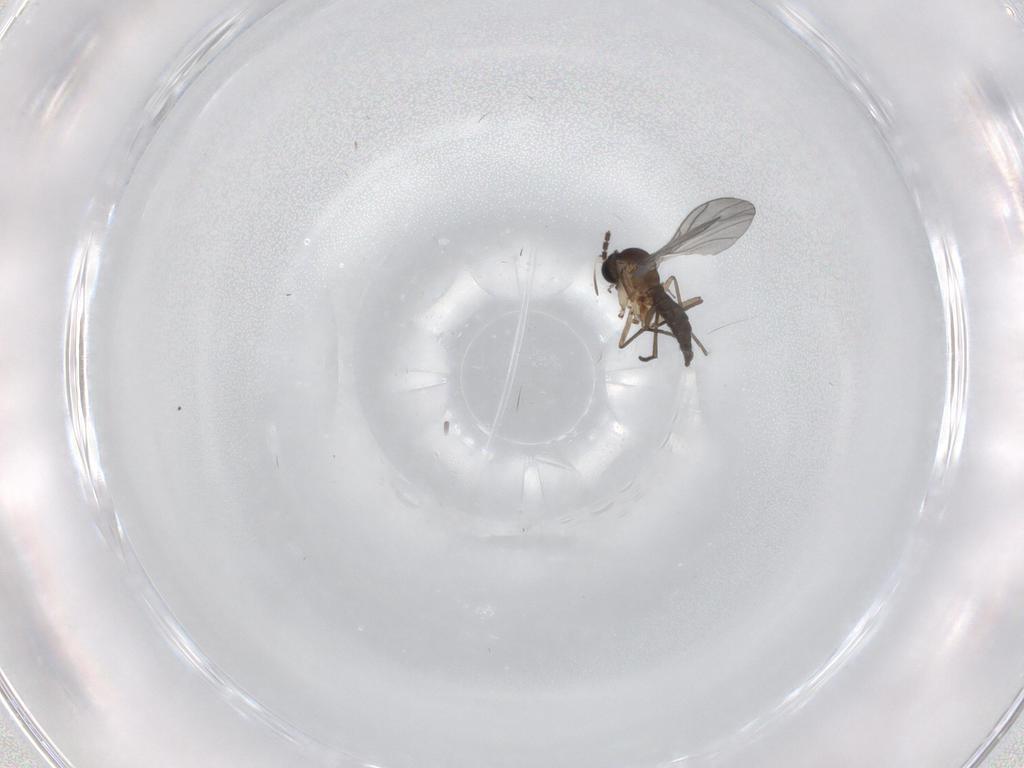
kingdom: Animalia
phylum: Arthropoda
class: Insecta
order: Diptera
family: Sciaridae
